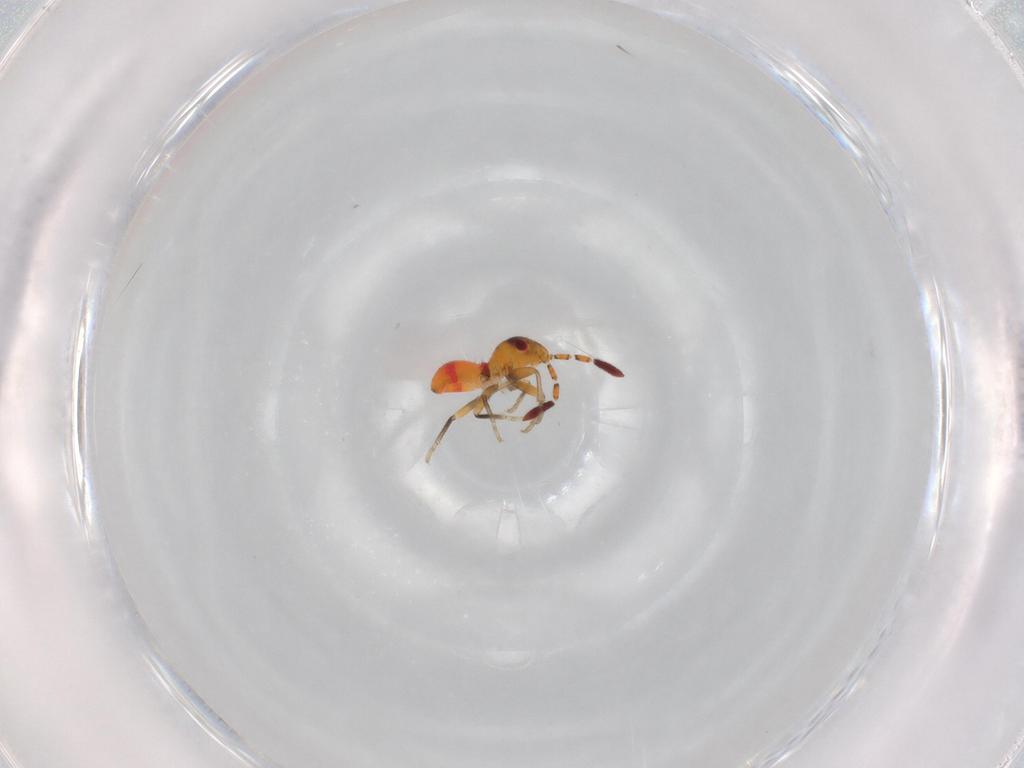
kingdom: Animalia
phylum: Arthropoda
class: Insecta
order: Hemiptera
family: Rhyparochromidae
